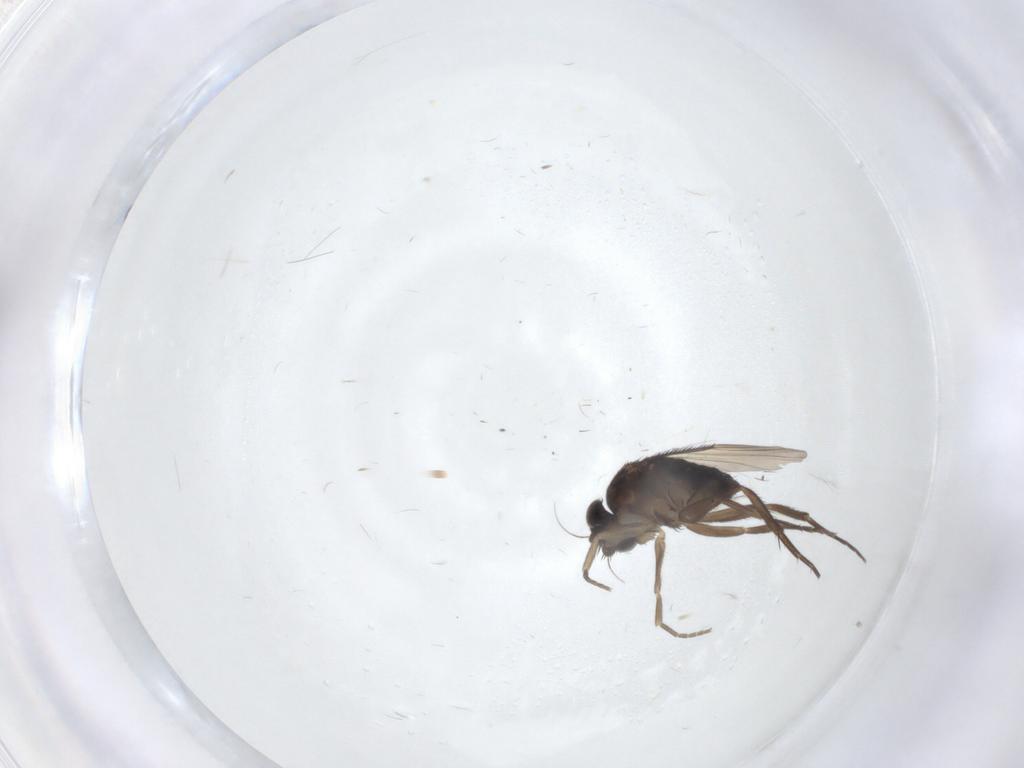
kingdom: Animalia
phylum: Arthropoda
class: Insecta
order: Diptera
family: Phoridae
